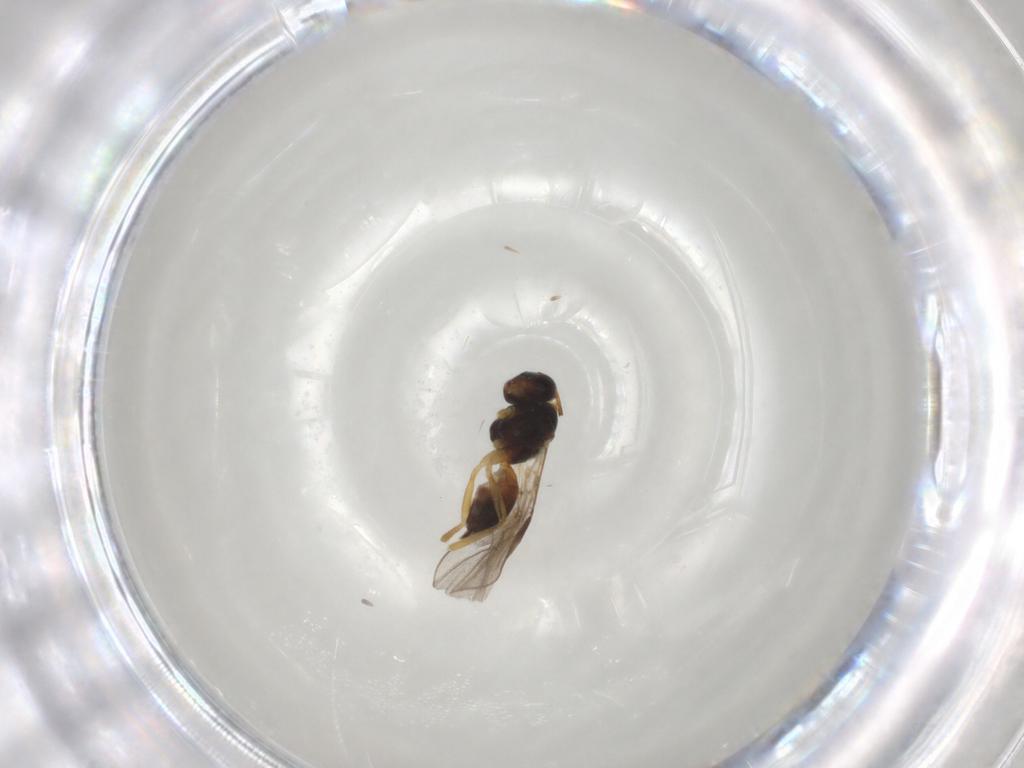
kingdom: Animalia
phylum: Arthropoda
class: Insecta
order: Hymenoptera
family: Braconidae
